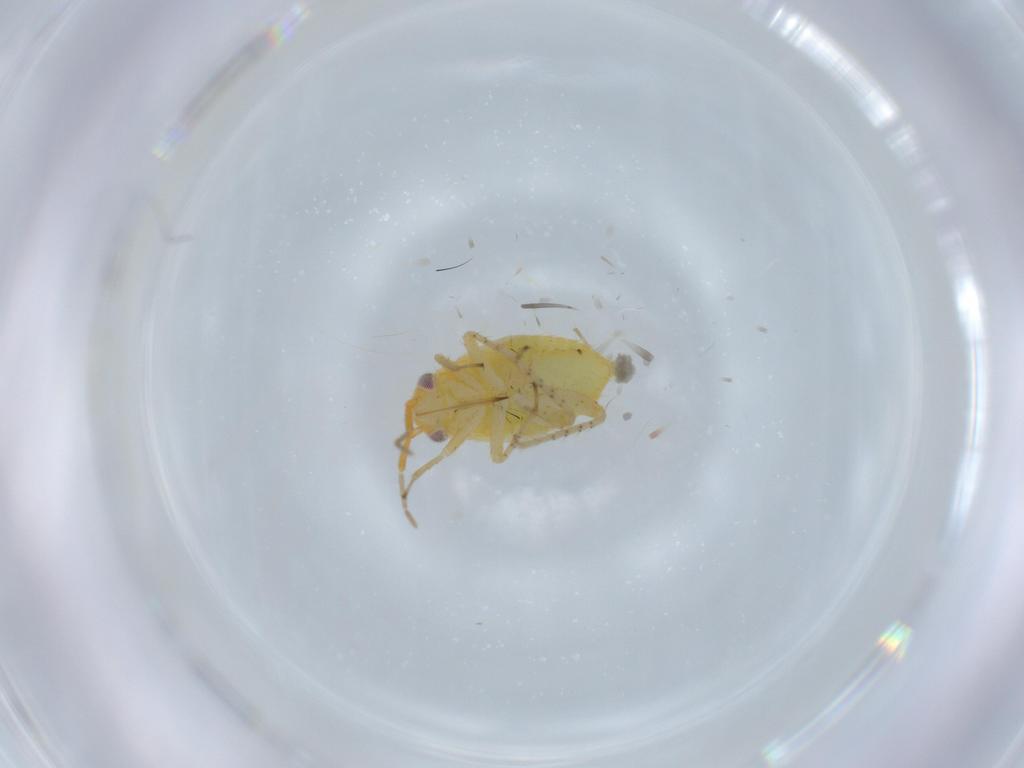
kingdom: Animalia
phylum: Arthropoda
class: Insecta
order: Hemiptera
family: Miridae
